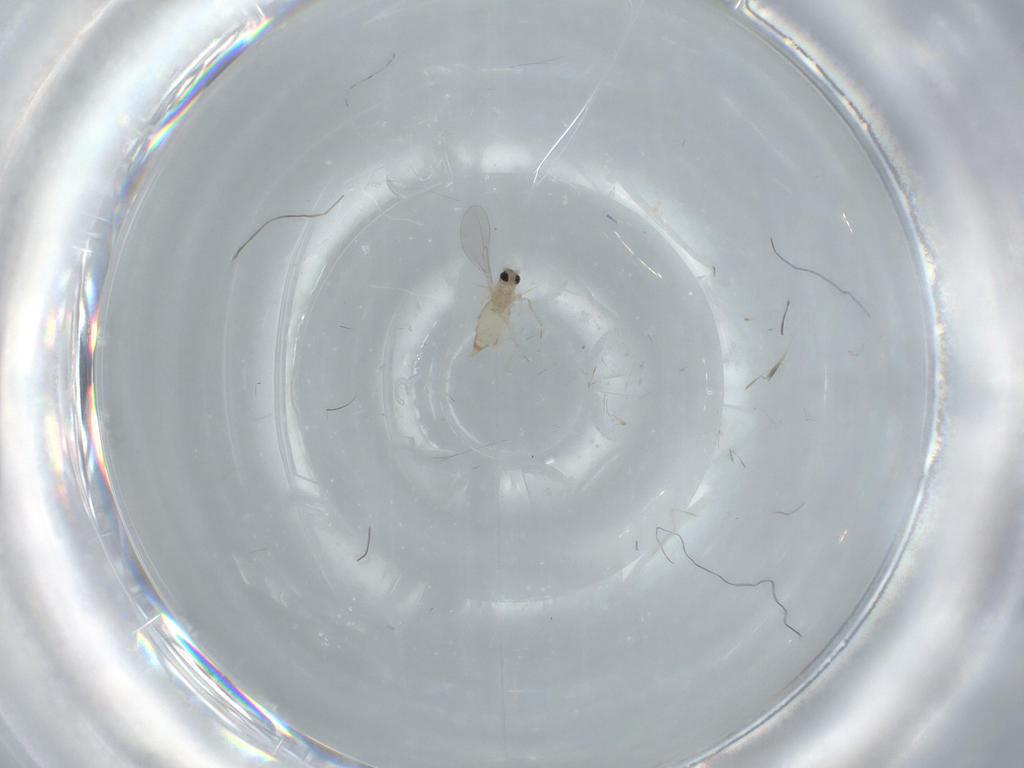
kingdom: Animalia
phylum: Arthropoda
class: Insecta
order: Diptera
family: Cecidomyiidae
